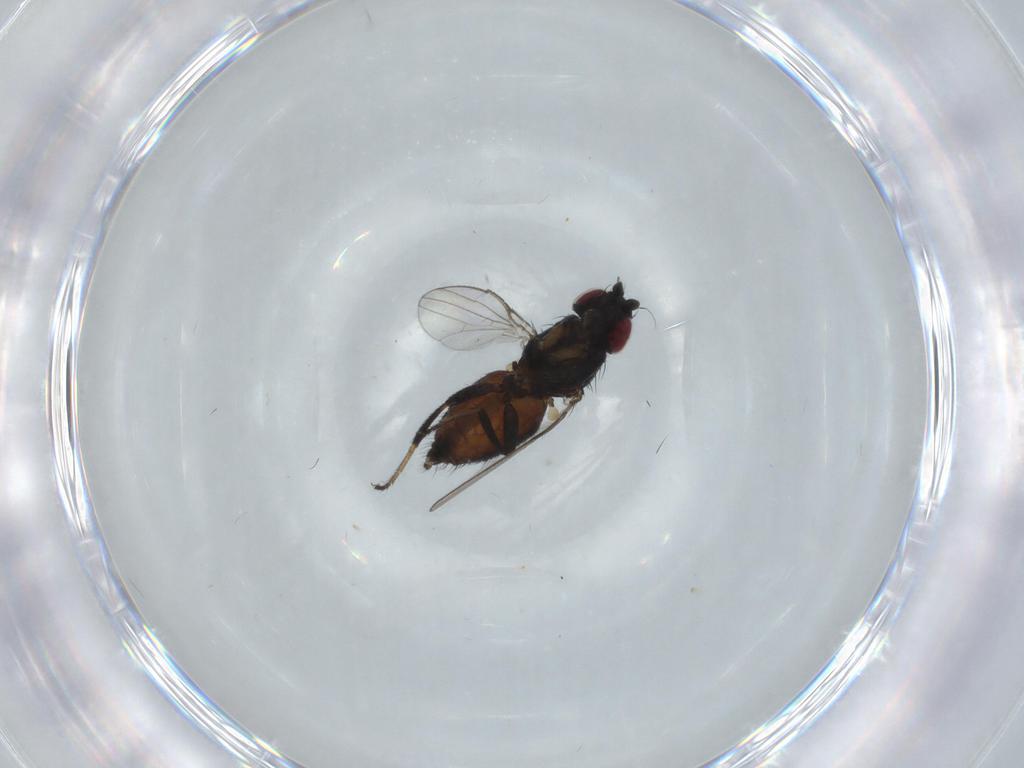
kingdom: Animalia
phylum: Arthropoda
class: Insecta
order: Diptera
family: Milichiidae
